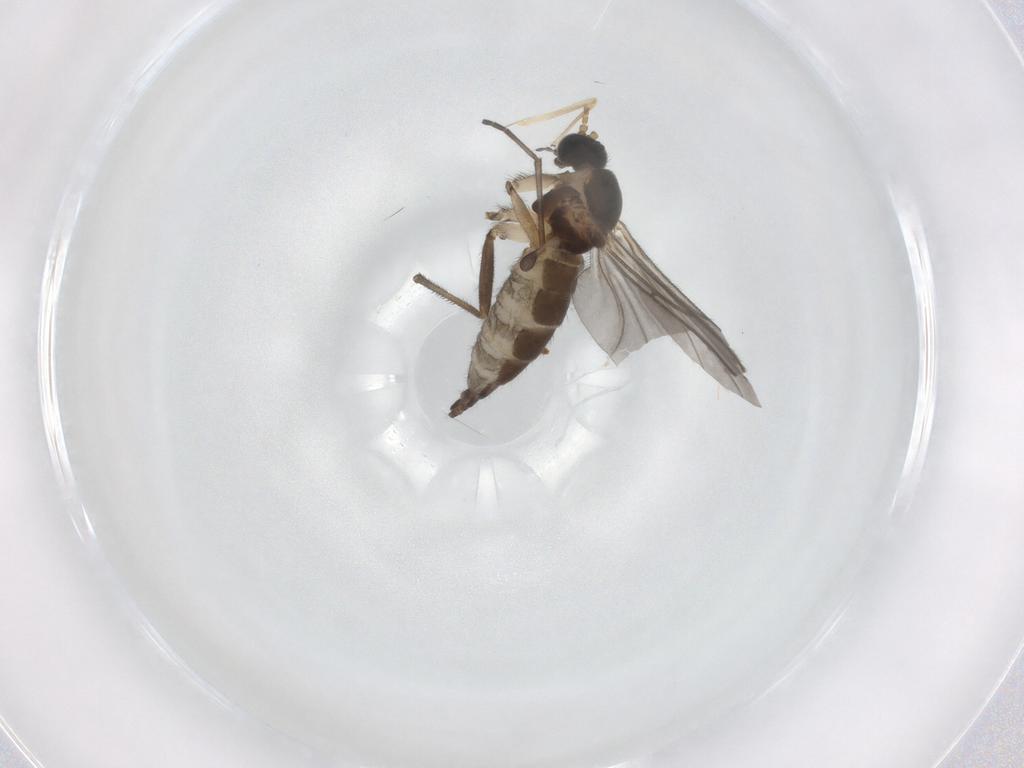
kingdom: Animalia
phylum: Arthropoda
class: Insecta
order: Diptera
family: Sciaridae
